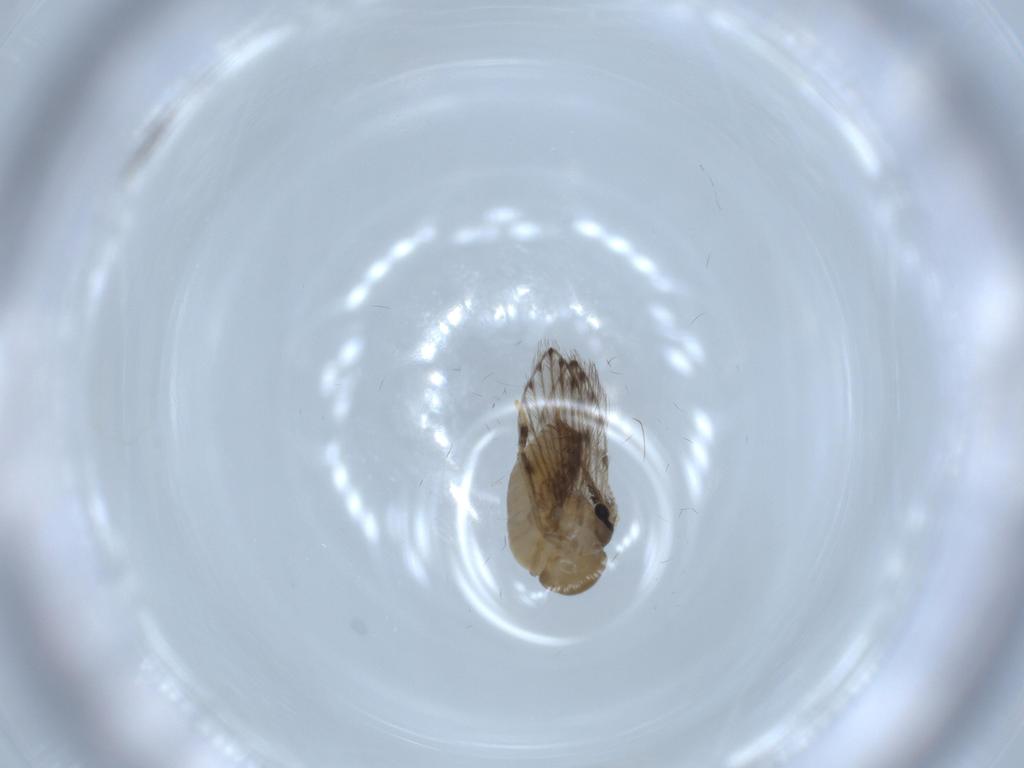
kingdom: Animalia
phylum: Arthropoda
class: Insecta
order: Diptera
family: Psychodidae
